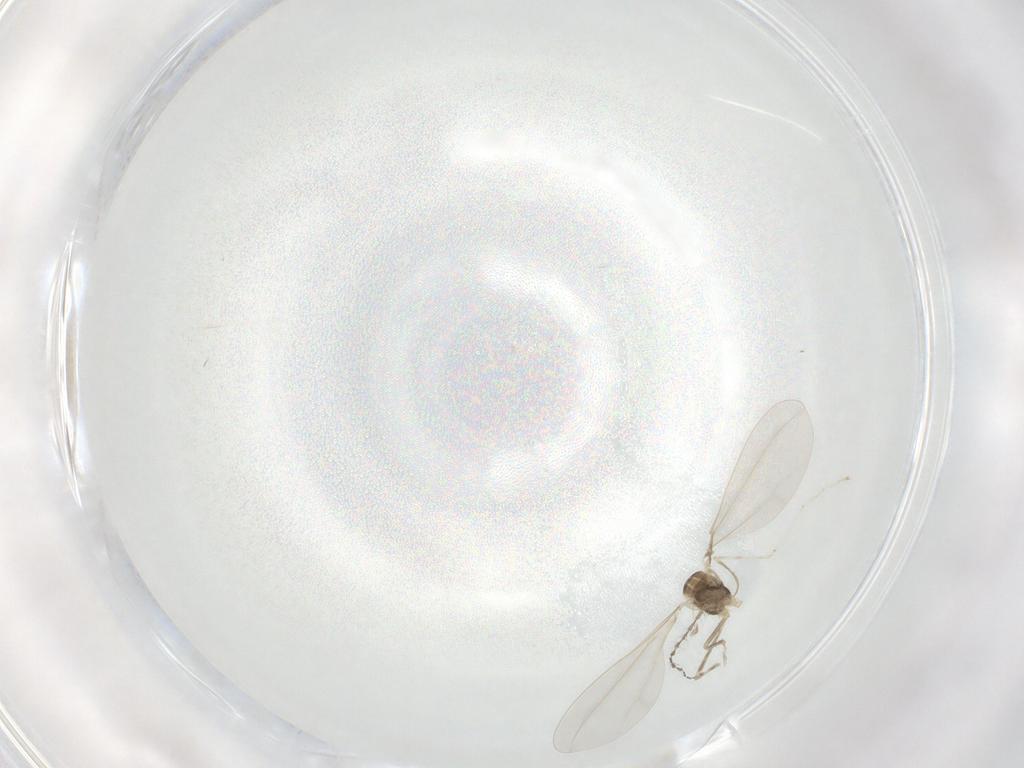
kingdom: Animalia
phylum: Arthropoda
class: Insecta
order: Diptera
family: Cecidomyiidae
